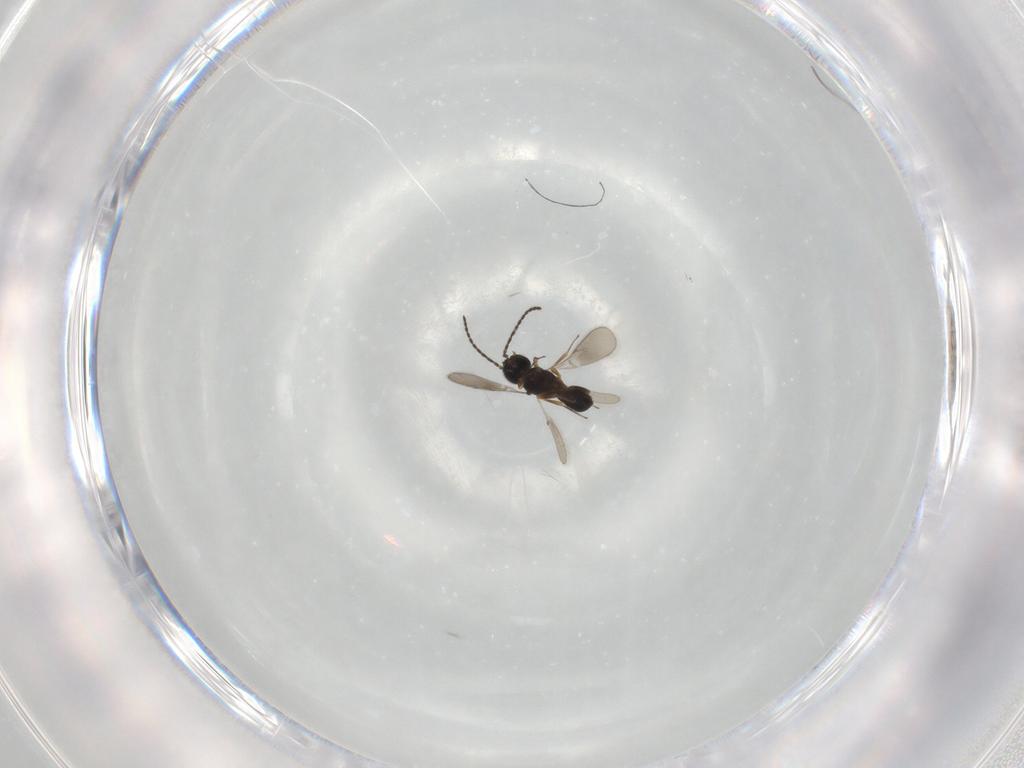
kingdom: Animalia
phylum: Arthropoda
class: Insecta
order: Hymenoptera
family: Scelionidae
